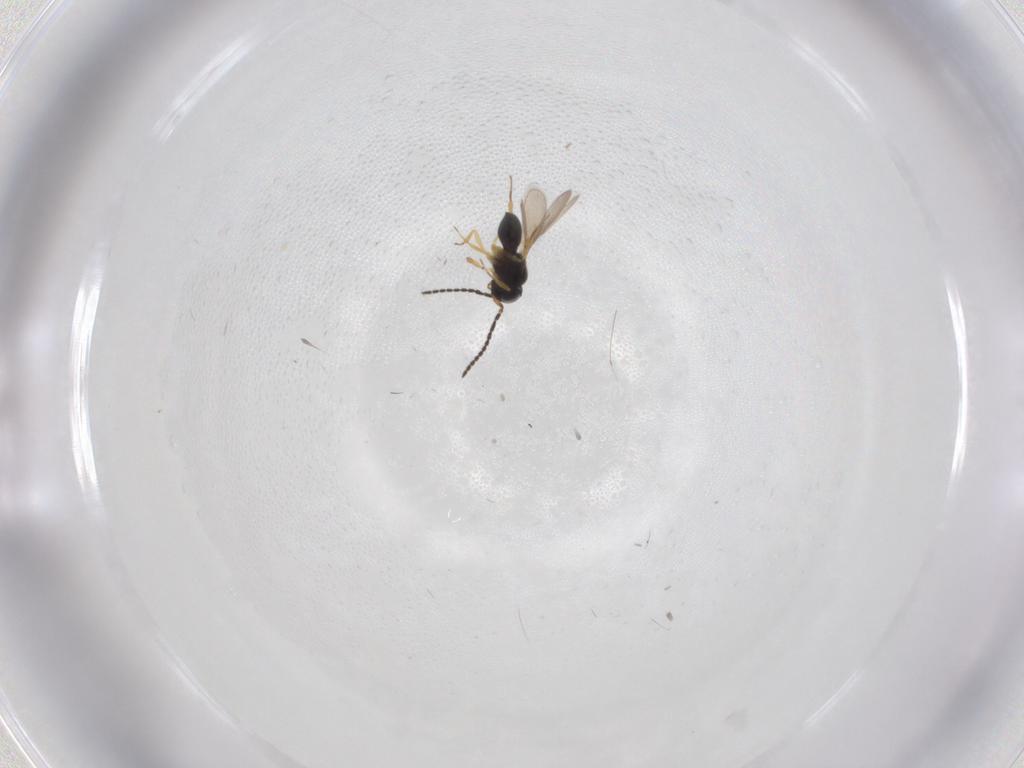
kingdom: Animalia
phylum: Arthropoda
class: Insecta
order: Hymenoptera
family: Scelionidae
